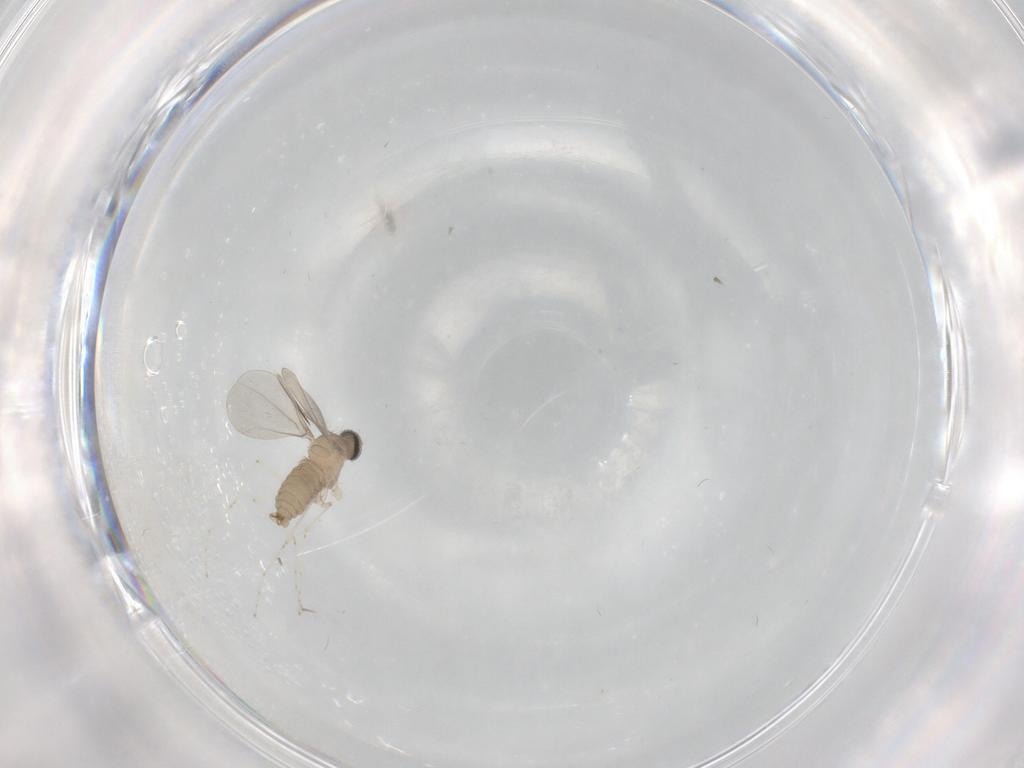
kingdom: Animalia
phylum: Arthropoda
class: Insecta
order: Diptera
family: Cecidomyiidae
